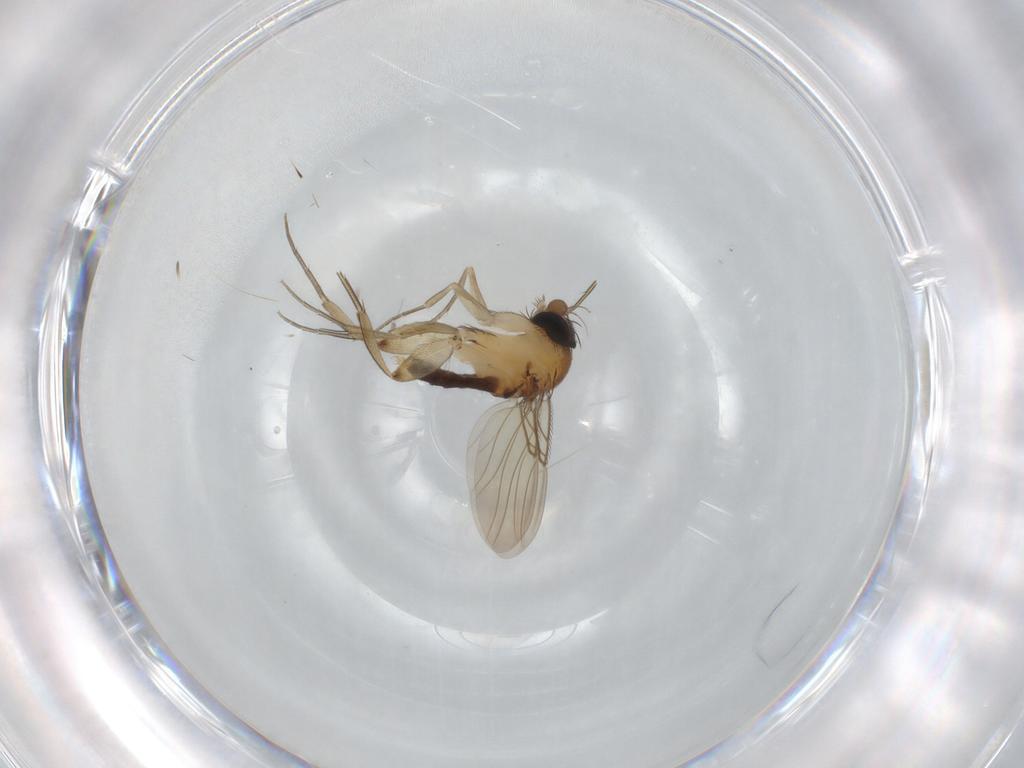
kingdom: Animalia
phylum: Arthropoda
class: Insecta
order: Diptera
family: Phoridae
